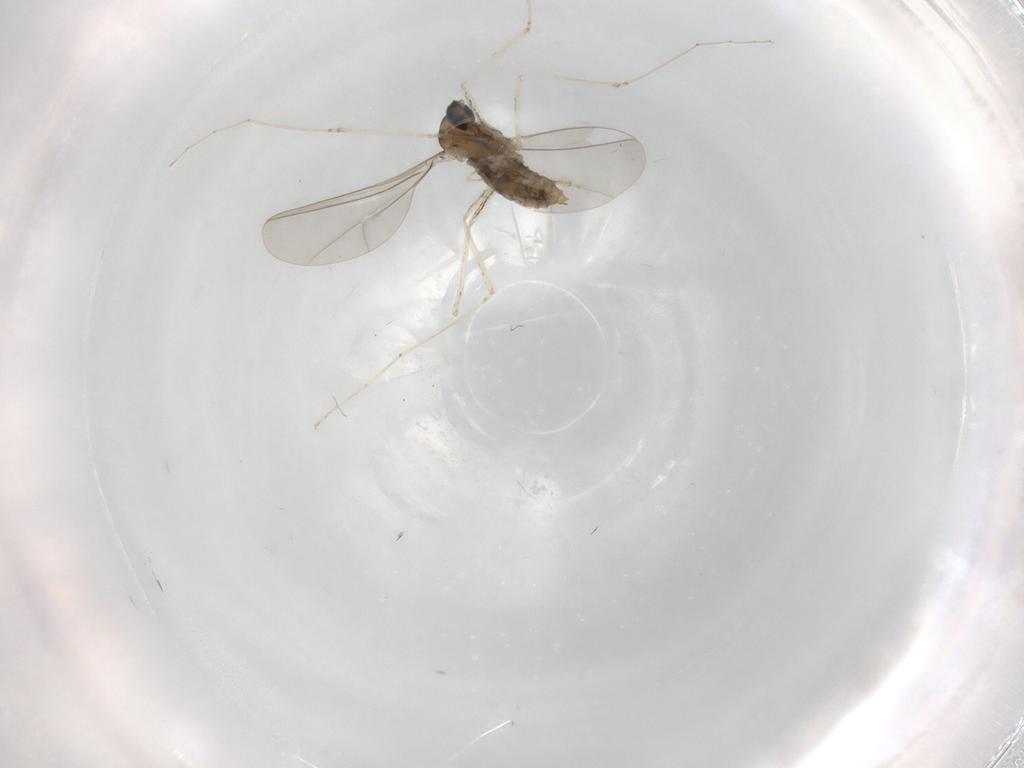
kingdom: Animalia
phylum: Arthropoda
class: Insecta
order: Diptera
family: Cecidomyiidae
